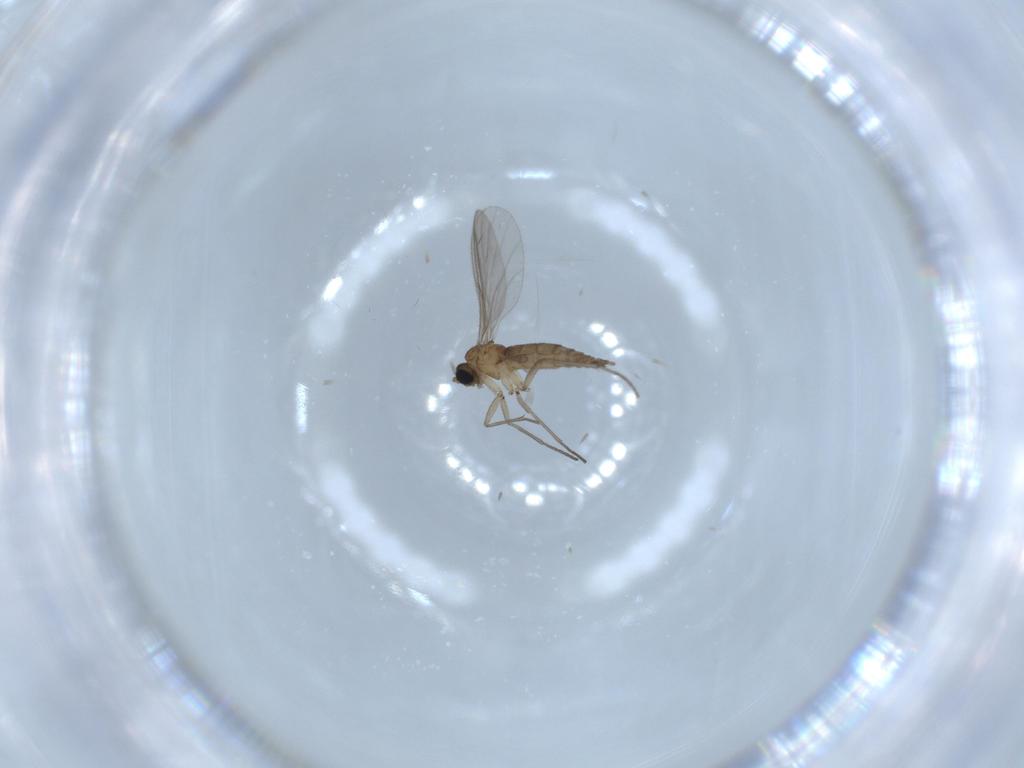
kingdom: Animalia
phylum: Arthropoda
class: Insecta
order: Diptera
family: Sciaridae
